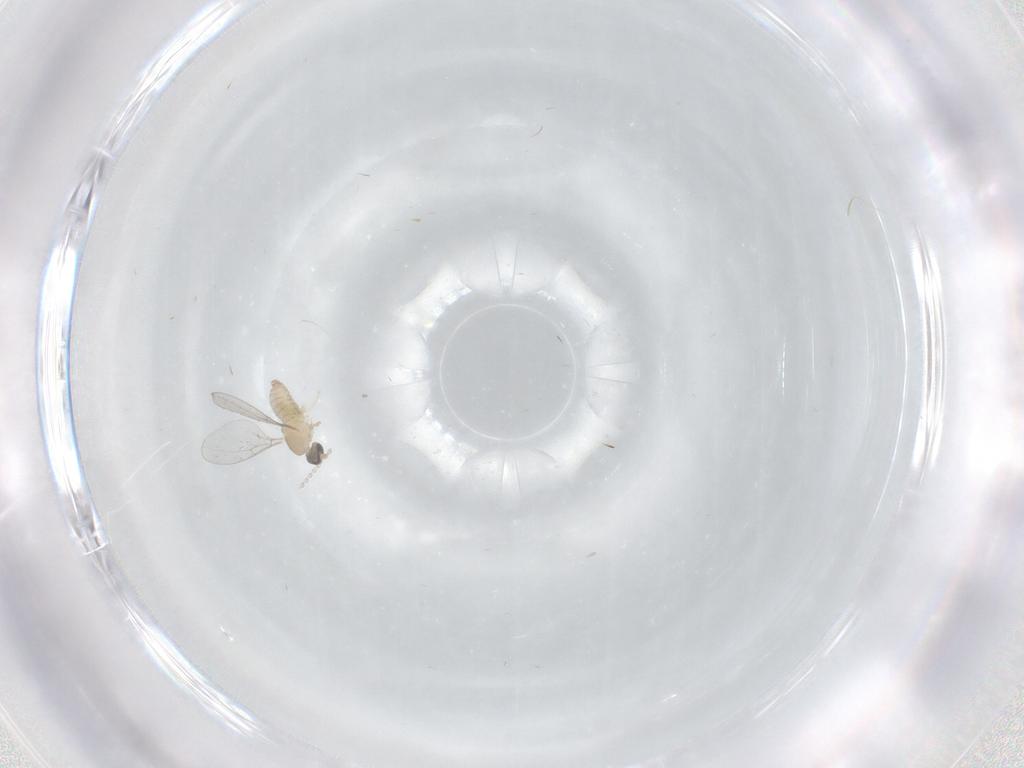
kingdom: Animalia
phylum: Arthropoda
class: Insecta
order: Diptera
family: Cecidomyiidae
